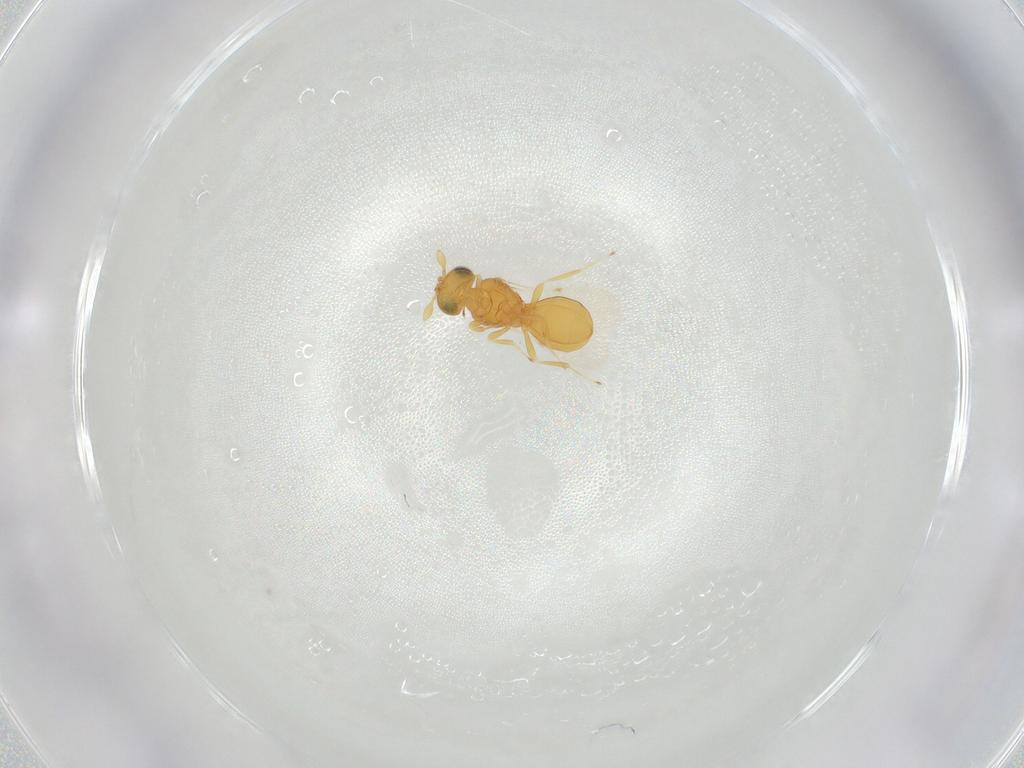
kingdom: Animalia
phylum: Arthropoda
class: Insecta
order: Hymenoptera
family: Scelionidae
